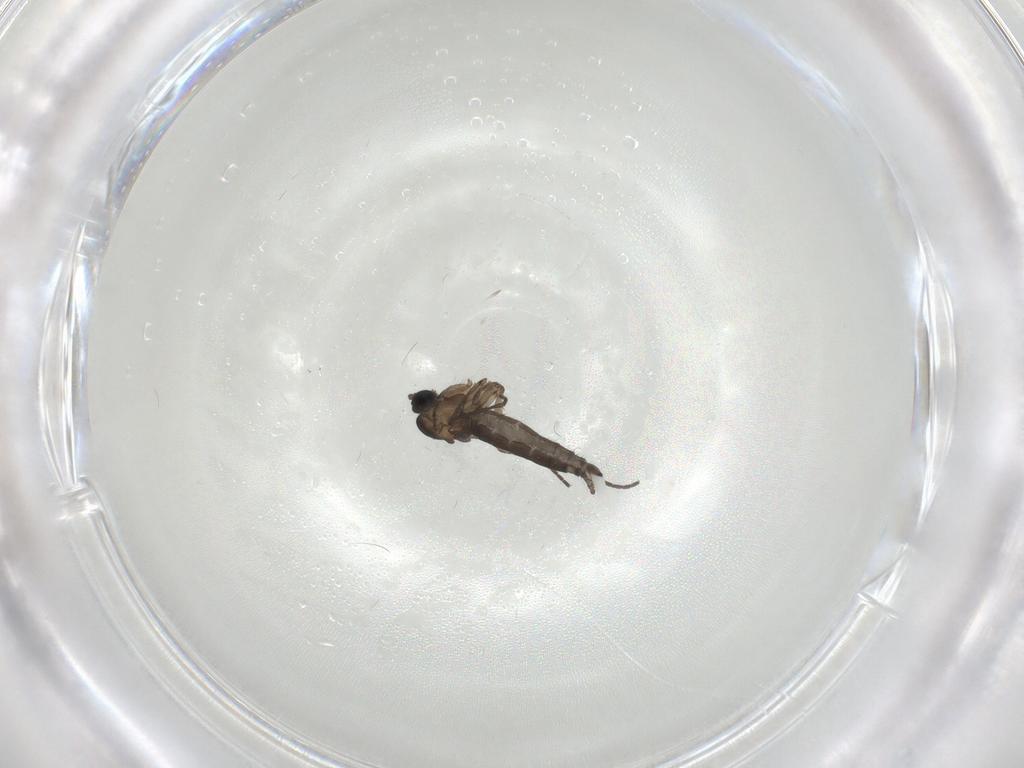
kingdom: Animalia
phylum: Arthropoda
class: Insecta
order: Diptera
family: Sciaridae
